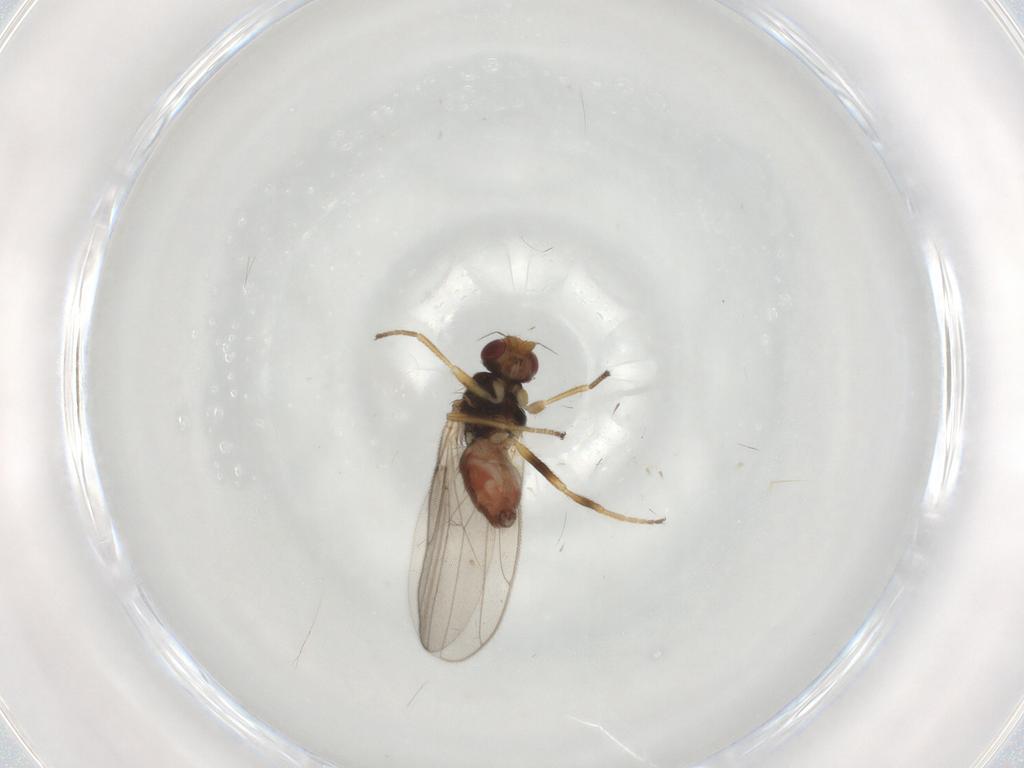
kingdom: Animalia
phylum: Arthropoda
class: Insecta
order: Diptera
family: Chloropidae
